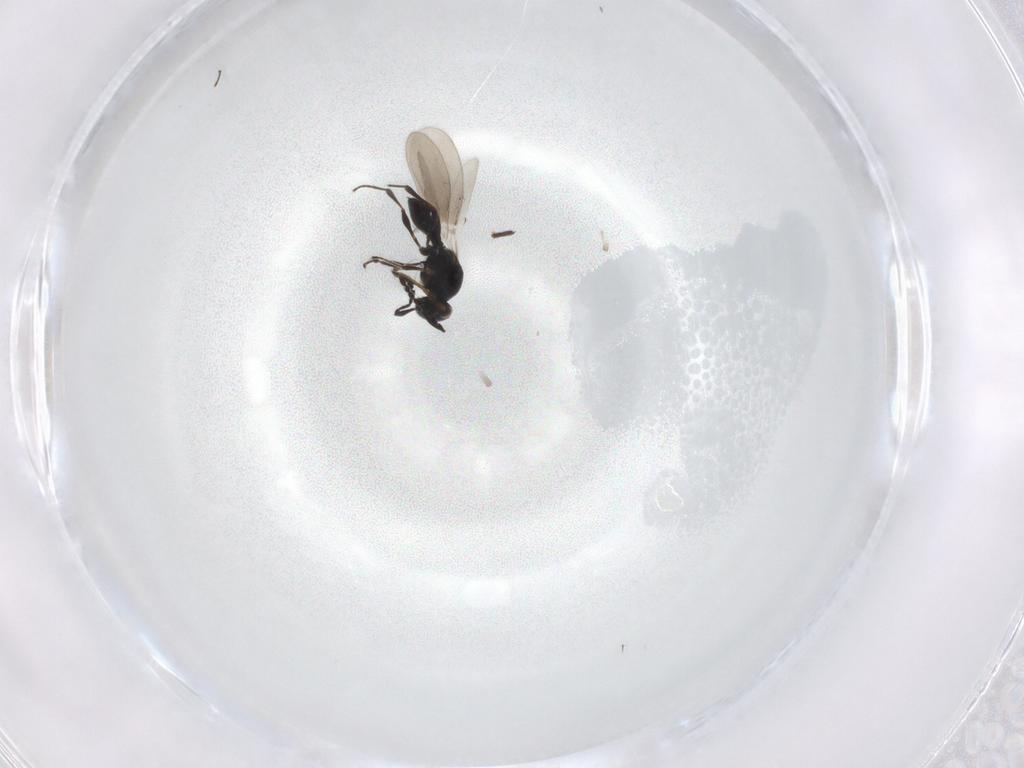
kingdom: Animalia
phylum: Arthropoda
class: Insecta
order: Hymenoptera
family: Platygastridae
